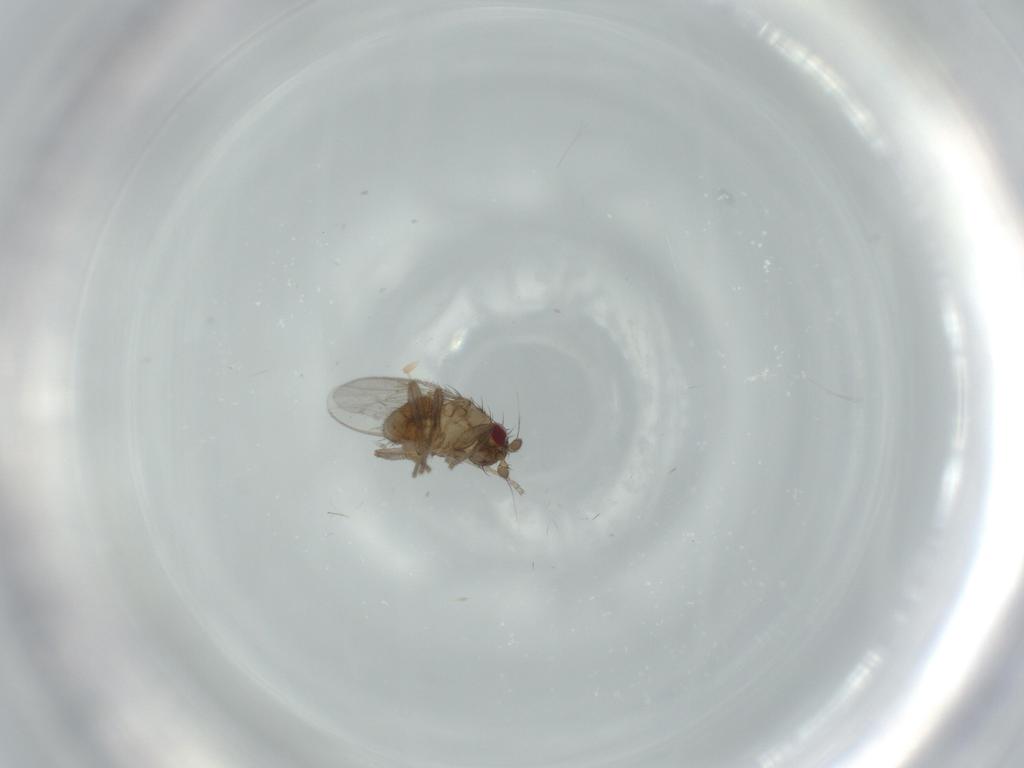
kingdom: Animalia
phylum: Arthropoda
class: Insecta
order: Diptera
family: Sphaeroceridae
